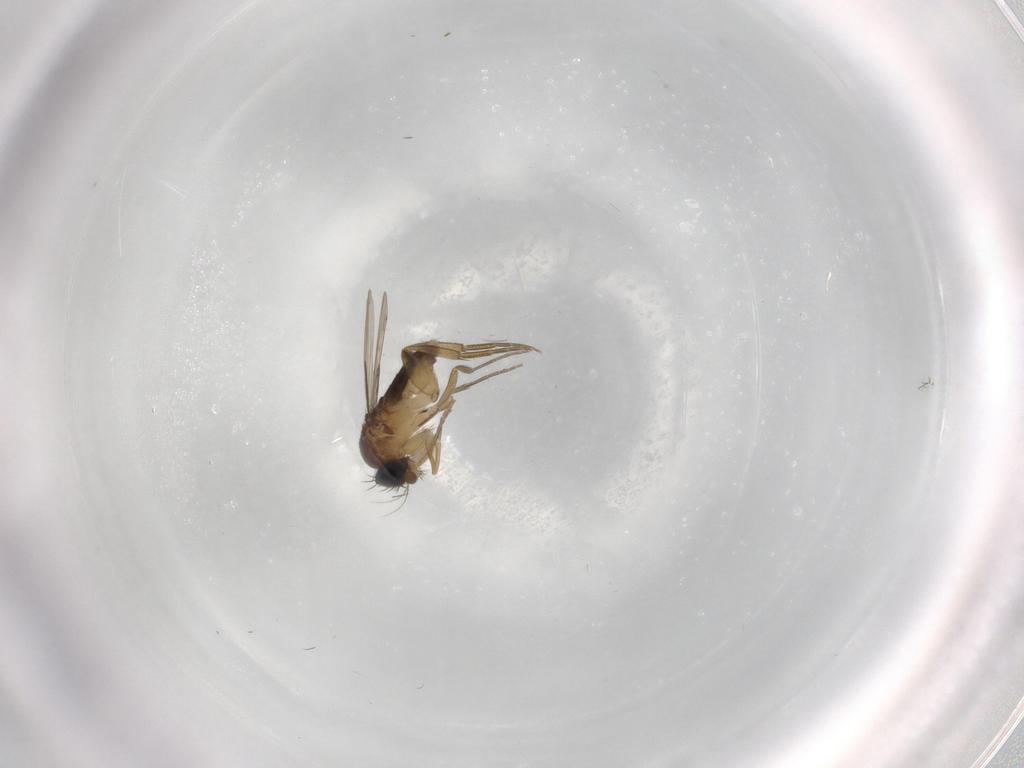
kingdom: Animalia
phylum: Arthropoda
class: Insecta
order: Diptera
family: Phoridae
